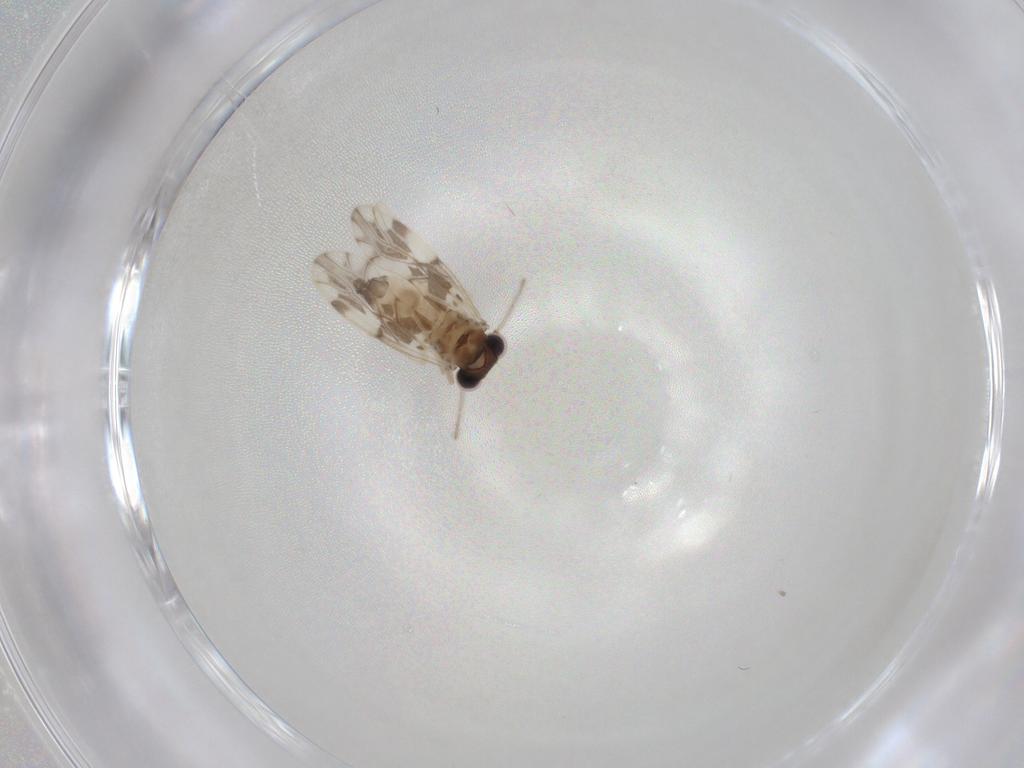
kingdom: Animalia
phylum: Arthropoda
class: Insecta
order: Psocodea
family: Ectopsocidae
